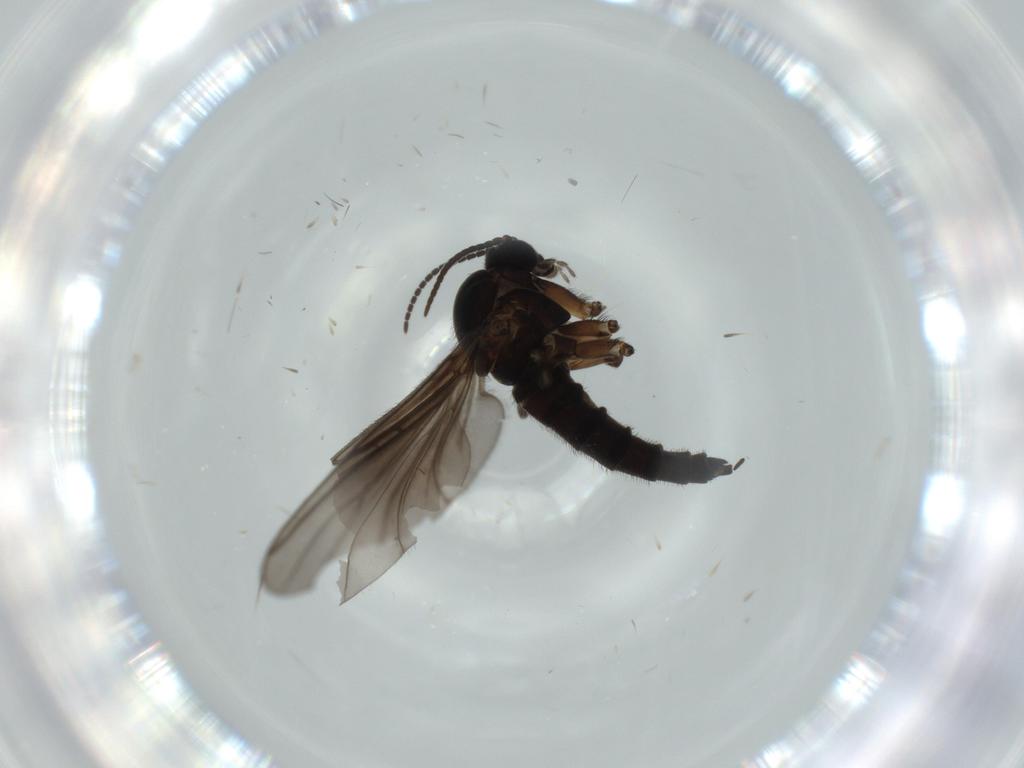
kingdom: Animalia
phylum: Arthropoda
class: Insecta
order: Diptera
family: Sciaridae
